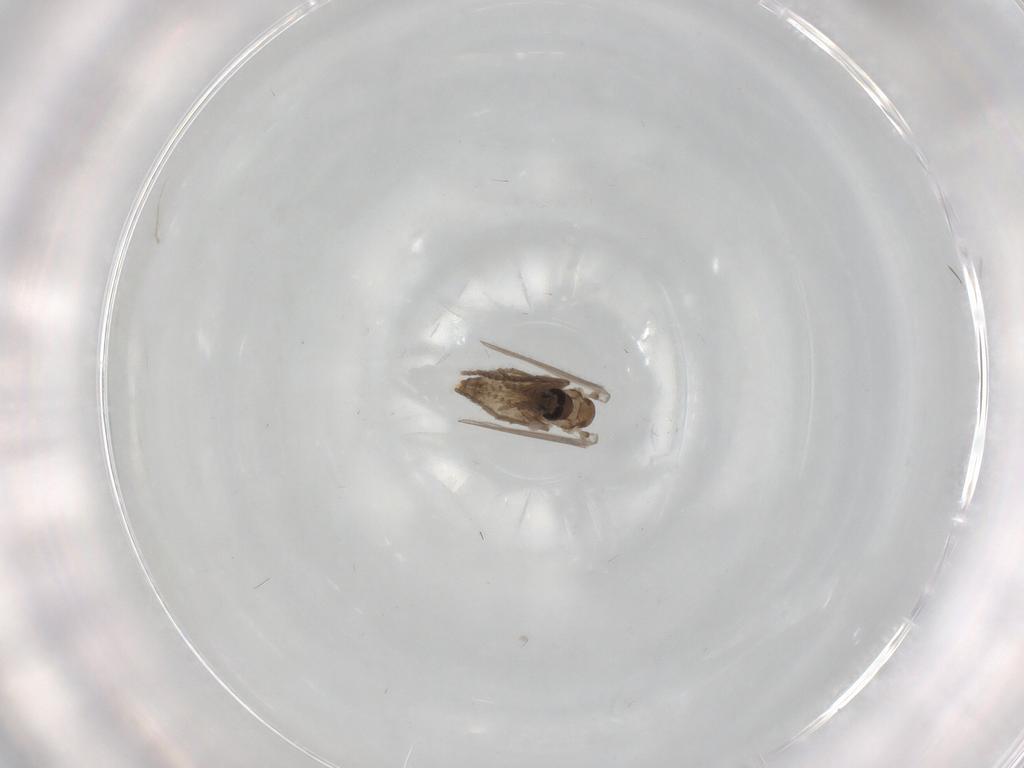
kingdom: Animalia
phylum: Arthropoda
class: Insecta
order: Diptera
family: Psychodidae
